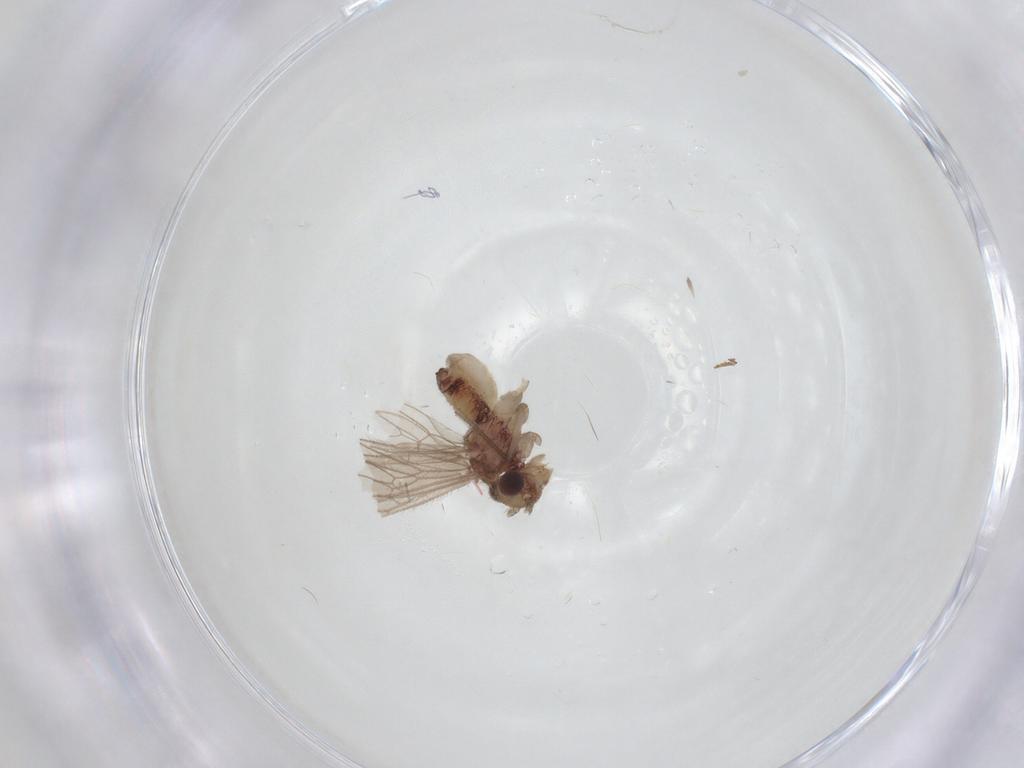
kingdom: Animalia
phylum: Arthropoda
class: Insecta
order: Psocodea
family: Cladiopsocidae
